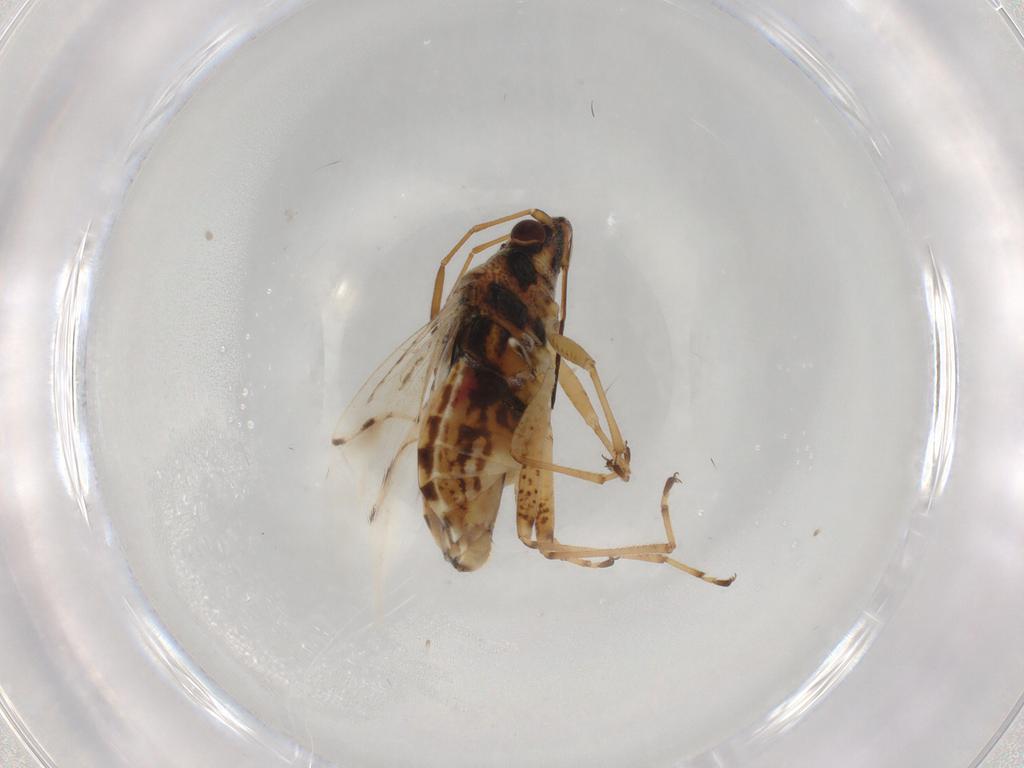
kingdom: Animalia
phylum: Arthropoda
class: Insecta
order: Hemiptera
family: Lygaeidae
